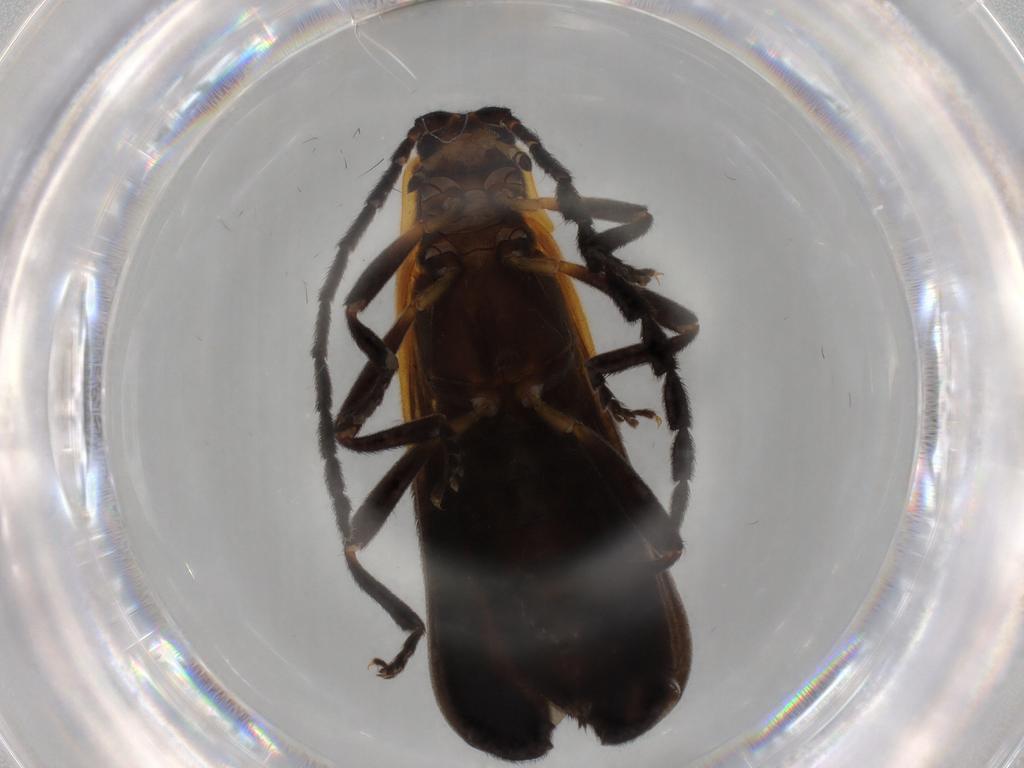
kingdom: Animalia
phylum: Arthropoda
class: Insecta
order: Coleoptera
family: Lycidae
